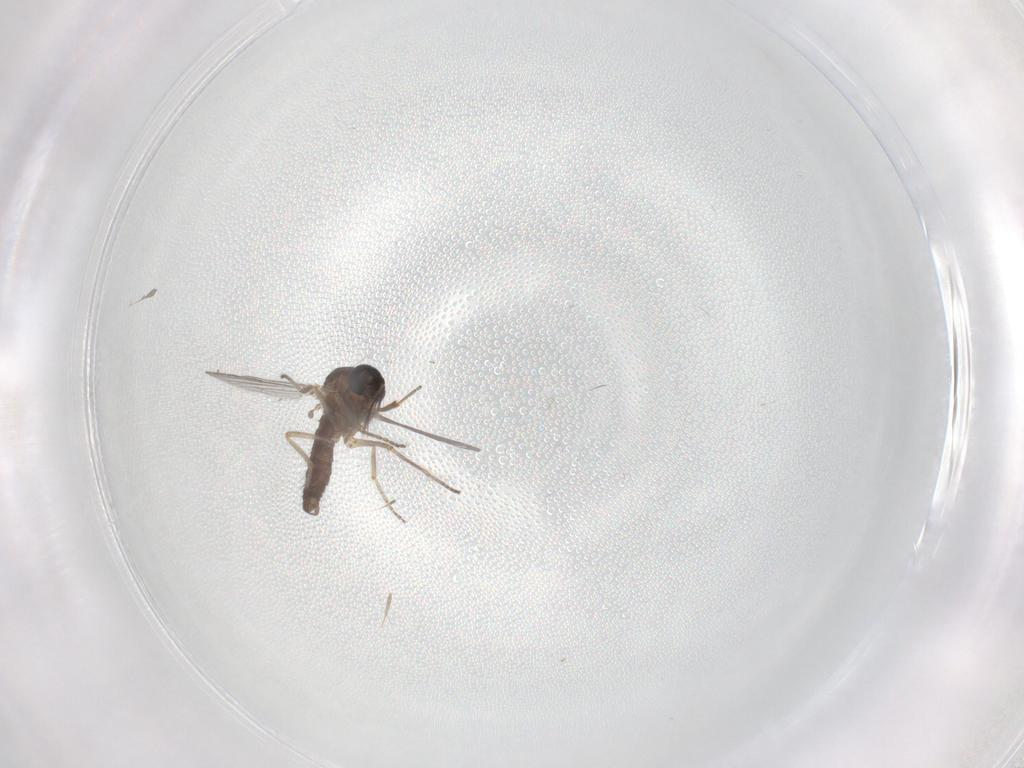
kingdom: Animalia
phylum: Arthropoda
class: Insecta
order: Diptera
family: Ceratopogonidae
